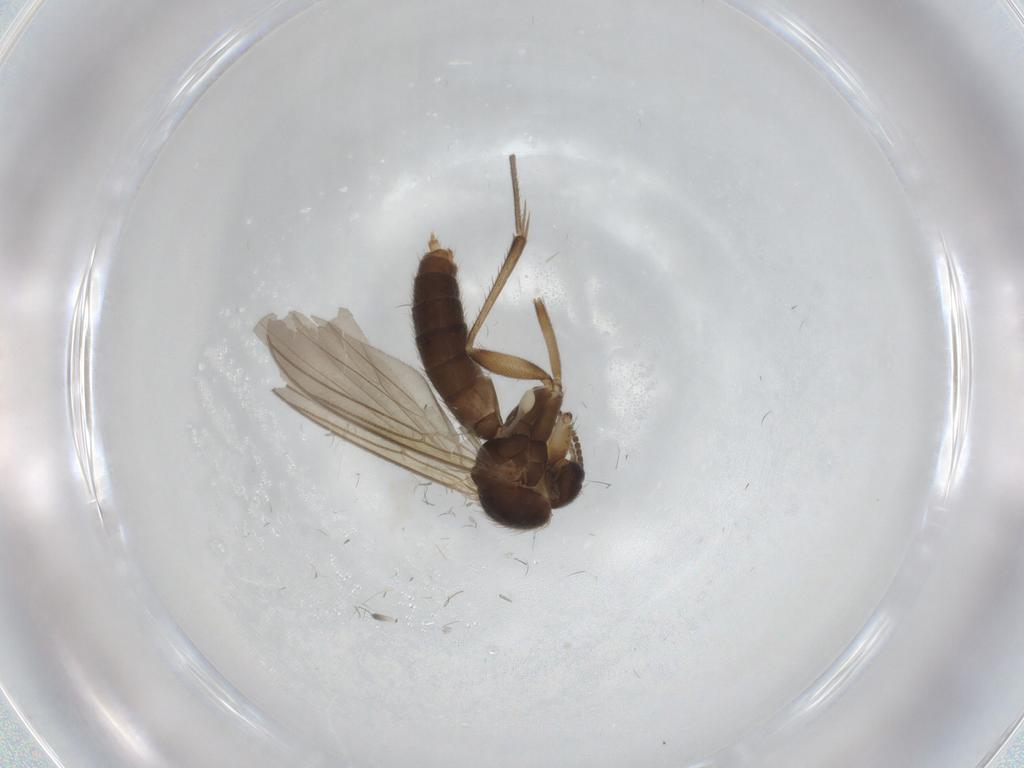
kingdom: Animalia
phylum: Arthropoda
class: Insecta
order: Diptera
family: Mycetophilidae
